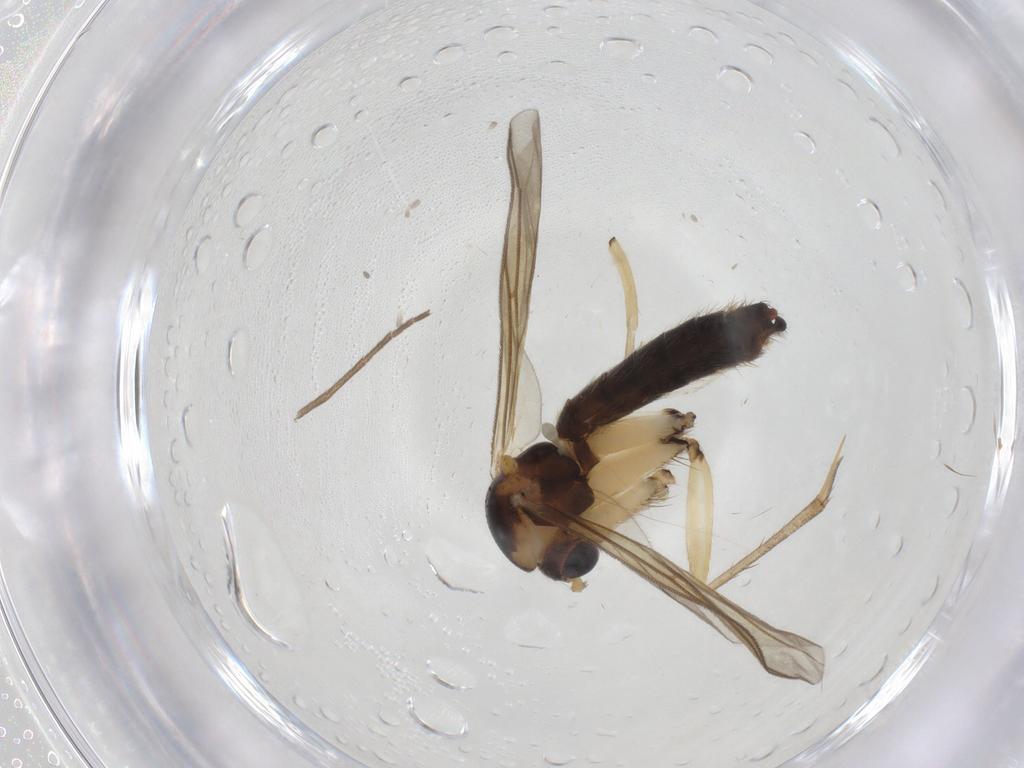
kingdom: Animalia
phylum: Arthropoda
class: Insecta
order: Diptera
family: Mycetophilidae
